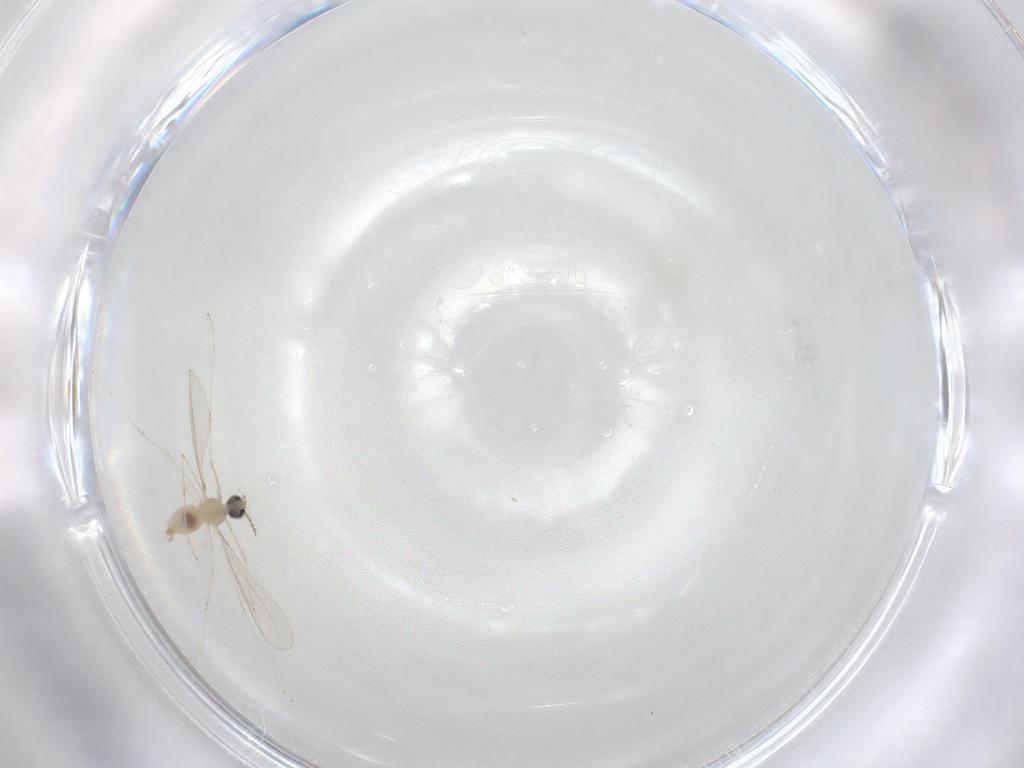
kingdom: Animalia
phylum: Arthropoda
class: Insecta
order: Diptera
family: Cecidomyiidae
